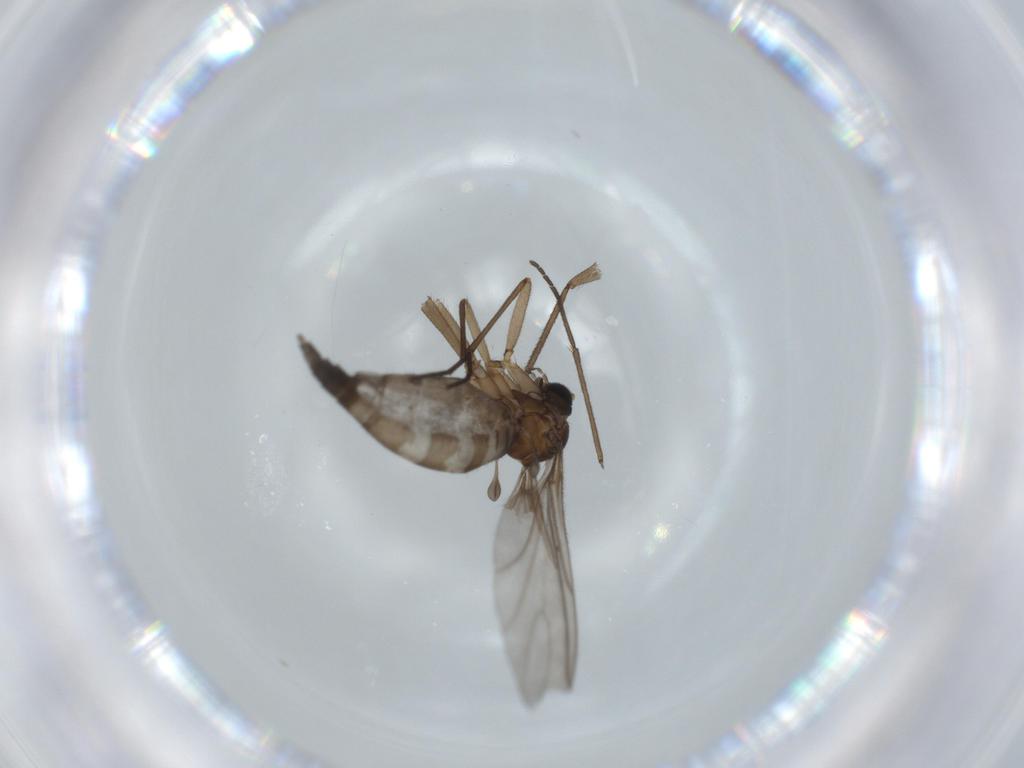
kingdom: Animalia
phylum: Arthropoda
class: Insecta
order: Diptera
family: Sciaridae
